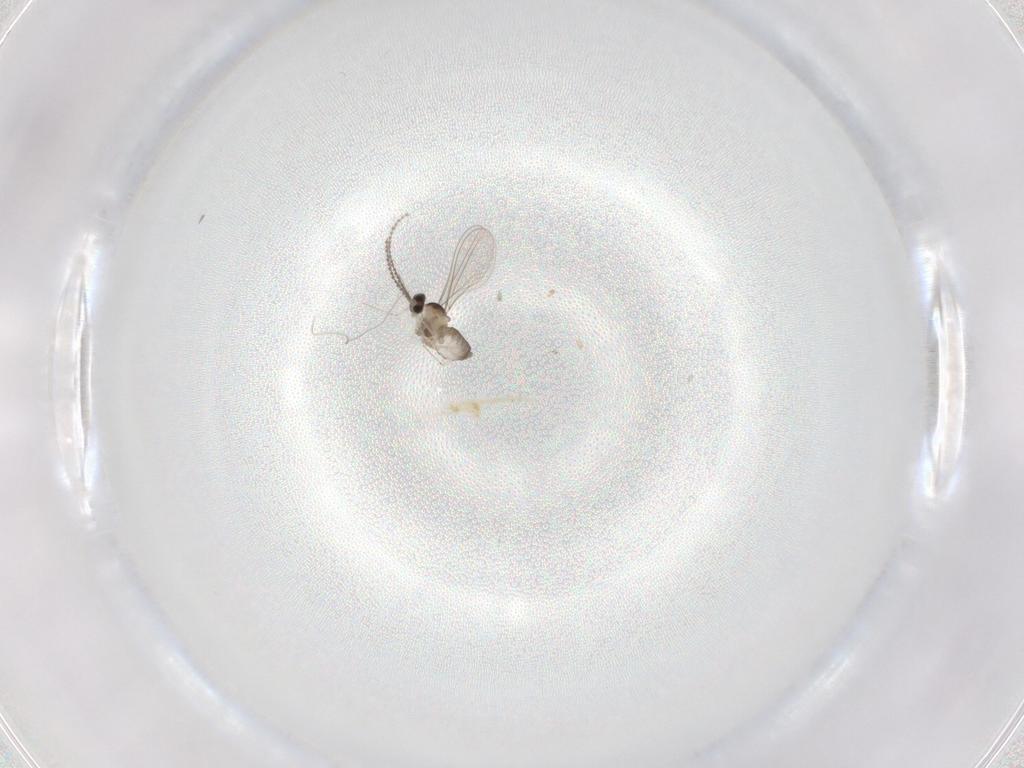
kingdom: Animalia
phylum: Arthropoda
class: Insecta
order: Diptera
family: Cecidomyiidae
